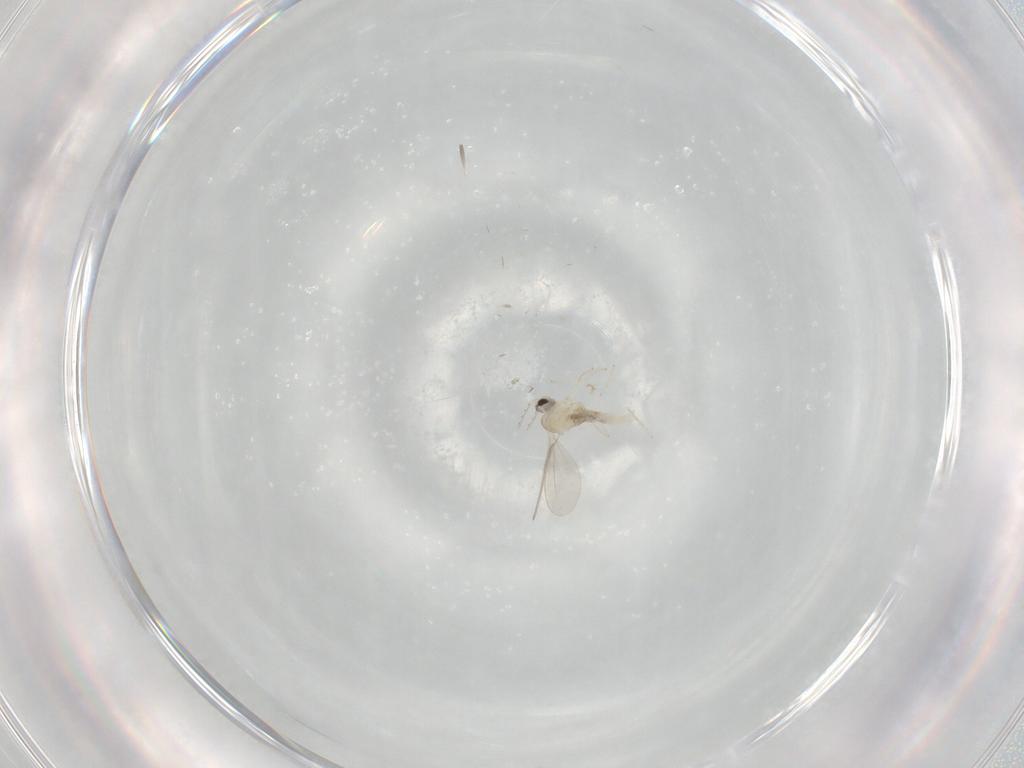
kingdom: Animalia
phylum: Arthropoda
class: Insecta
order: Diptera
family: Cecidomyiidae
